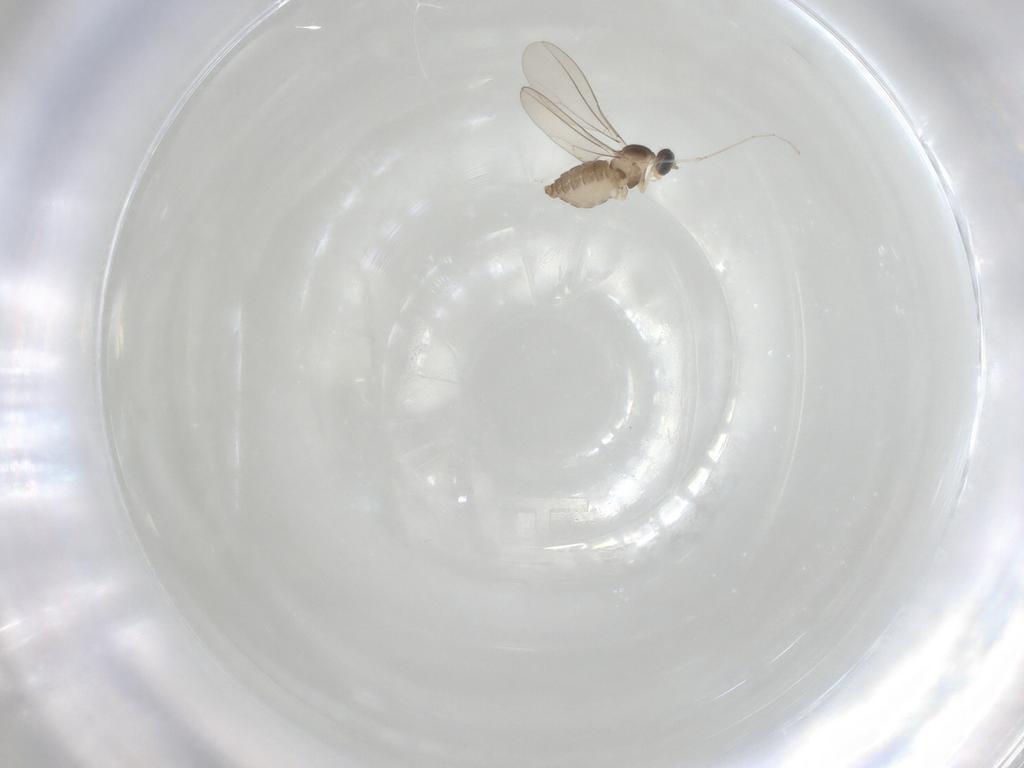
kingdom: Animalia
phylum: Arthropoda
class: Insecta
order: Diptera
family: Cecidomyiidae
